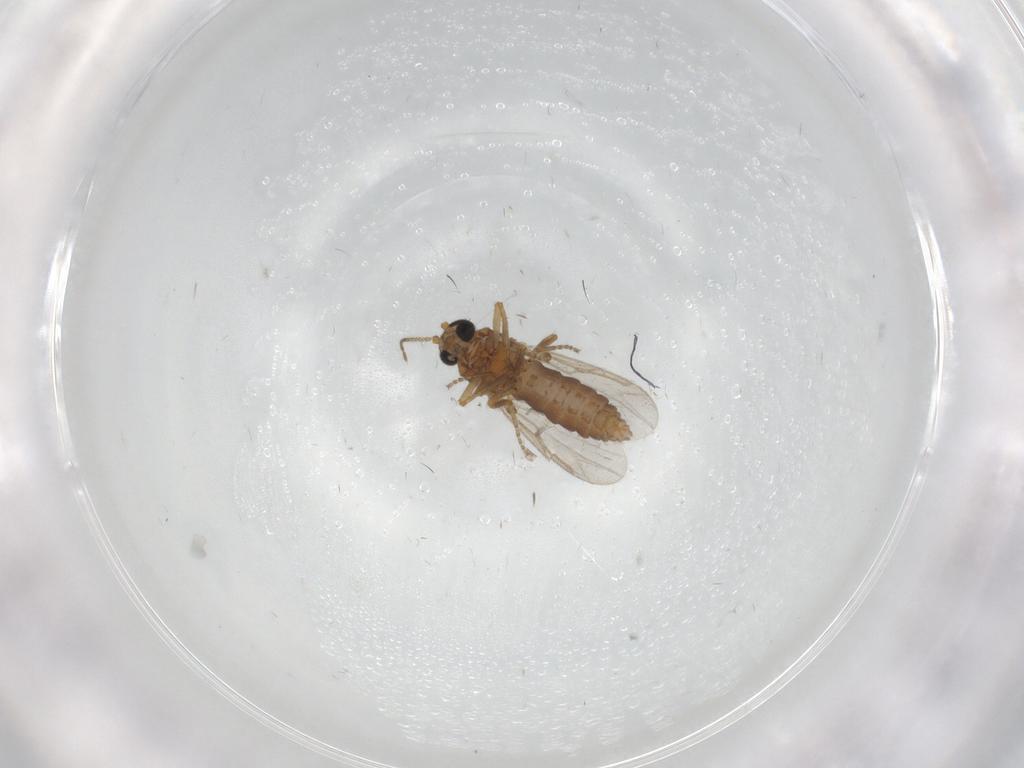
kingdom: Animalia
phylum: Arthropoda
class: Insecta
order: Diptera
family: Ceratopogonidae
